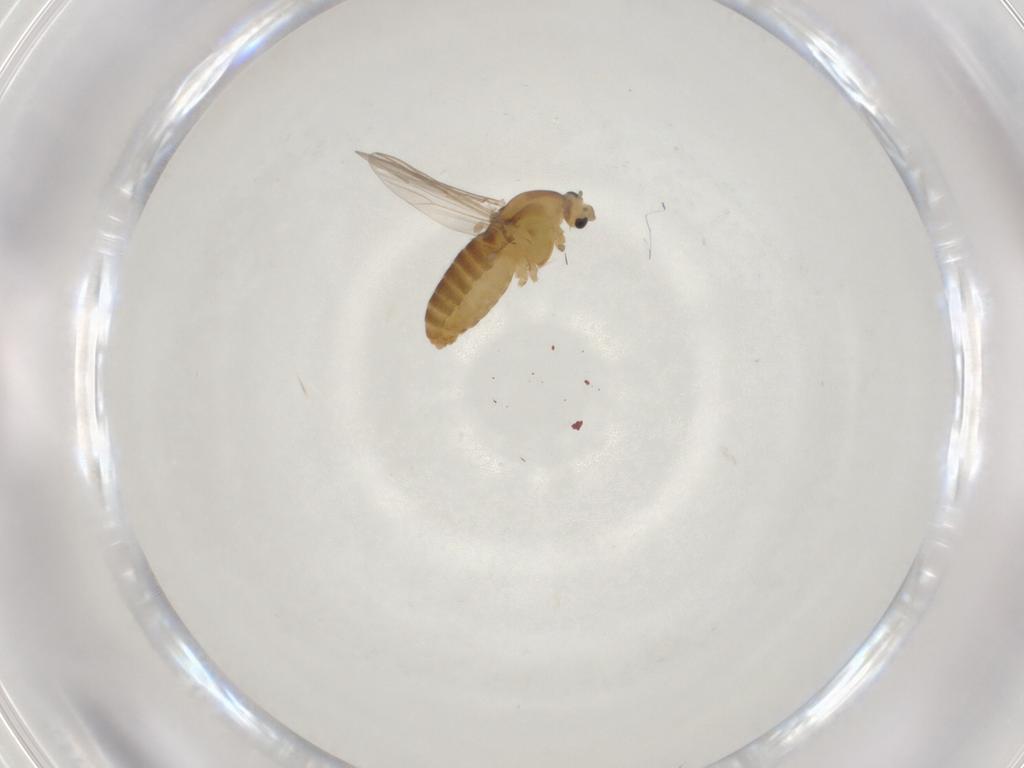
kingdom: Animalia
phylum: Arthropoda
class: Insecta
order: Diptera
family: Chironomidae
